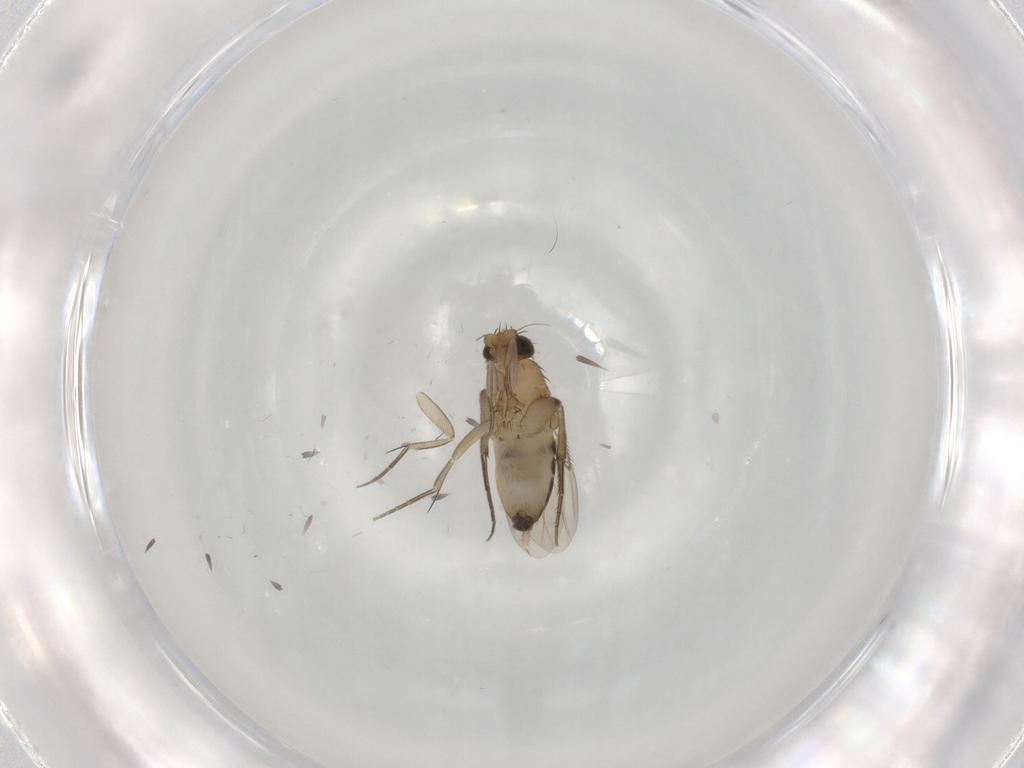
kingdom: Animalia
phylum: Arthropoda
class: Insecta
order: Diptera
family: Phoridae
